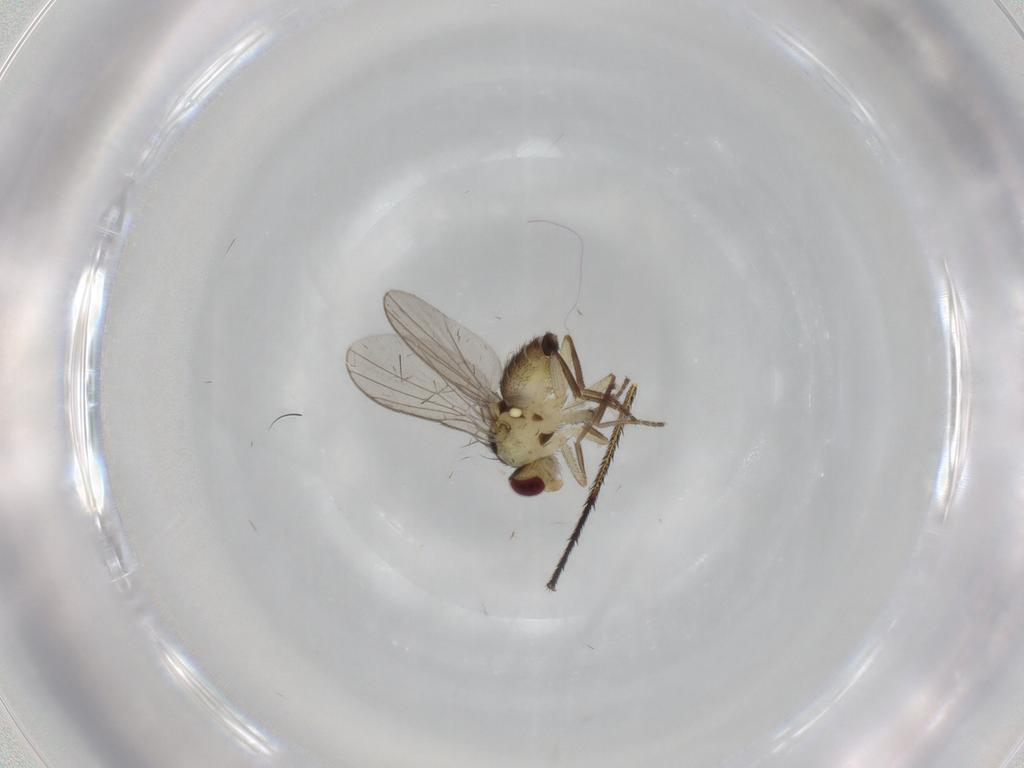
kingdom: Animalia
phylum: Arthropoda
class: Insecta
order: Diptera
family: Agromyzidae
